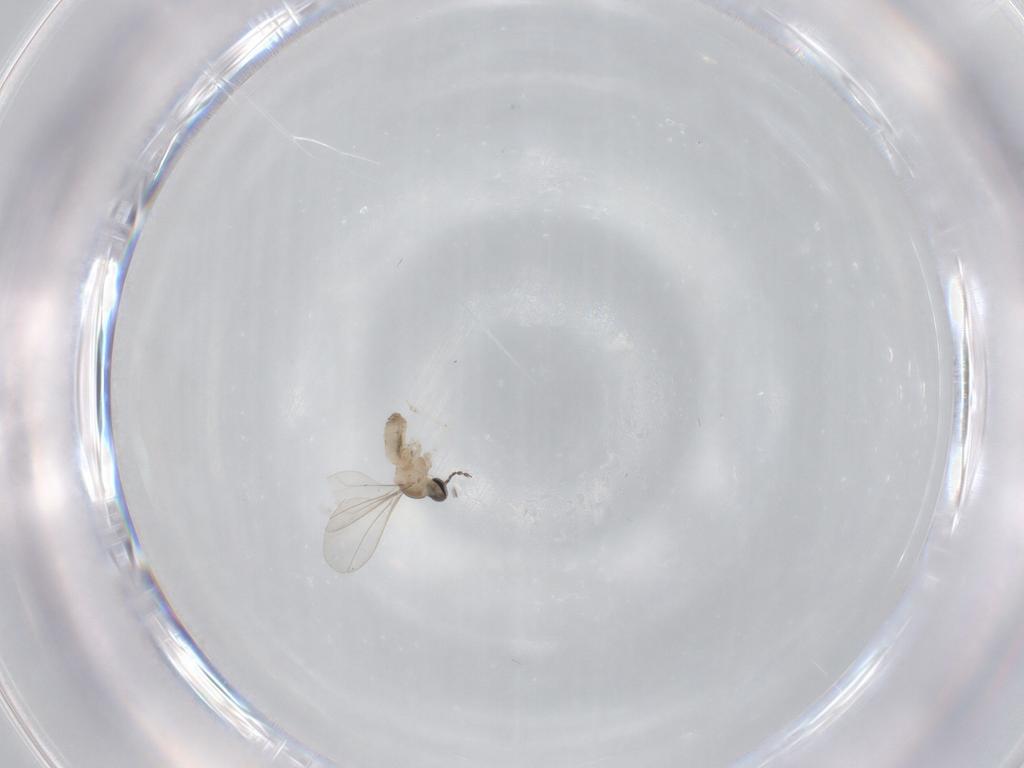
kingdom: Animalia
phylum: Arthropoda
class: Insecta
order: Diptera
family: Cecidomyiidae
